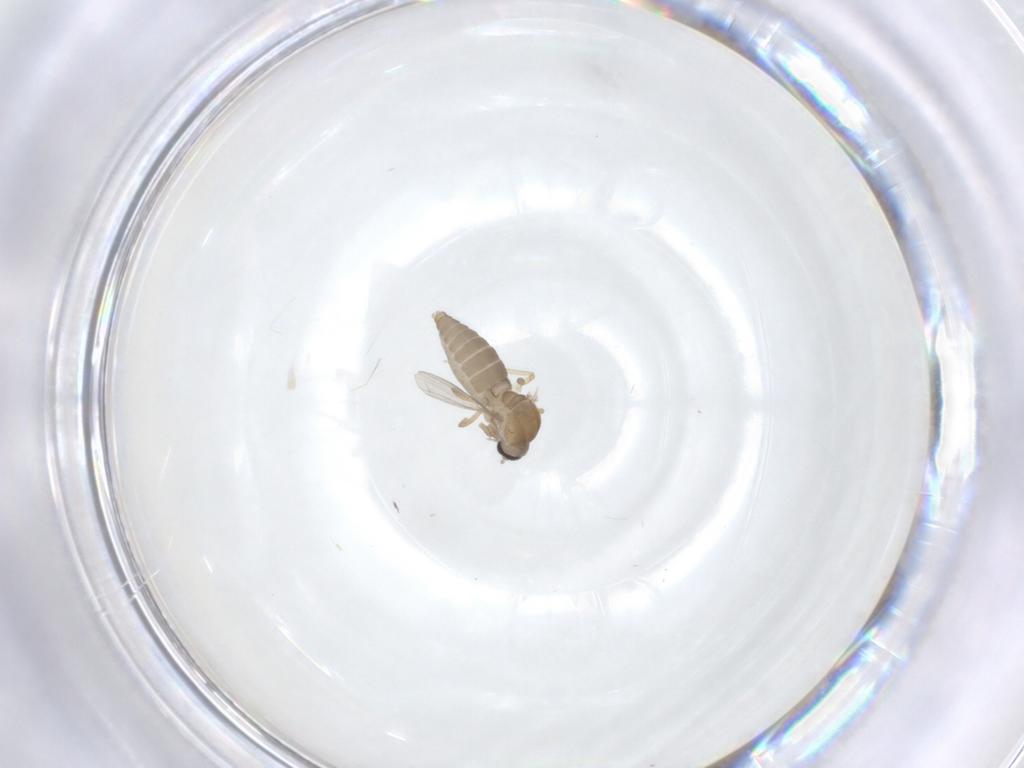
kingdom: Animalia
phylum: Arthropoda
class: Insecta
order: Diptera
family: Ceratopogonidae
